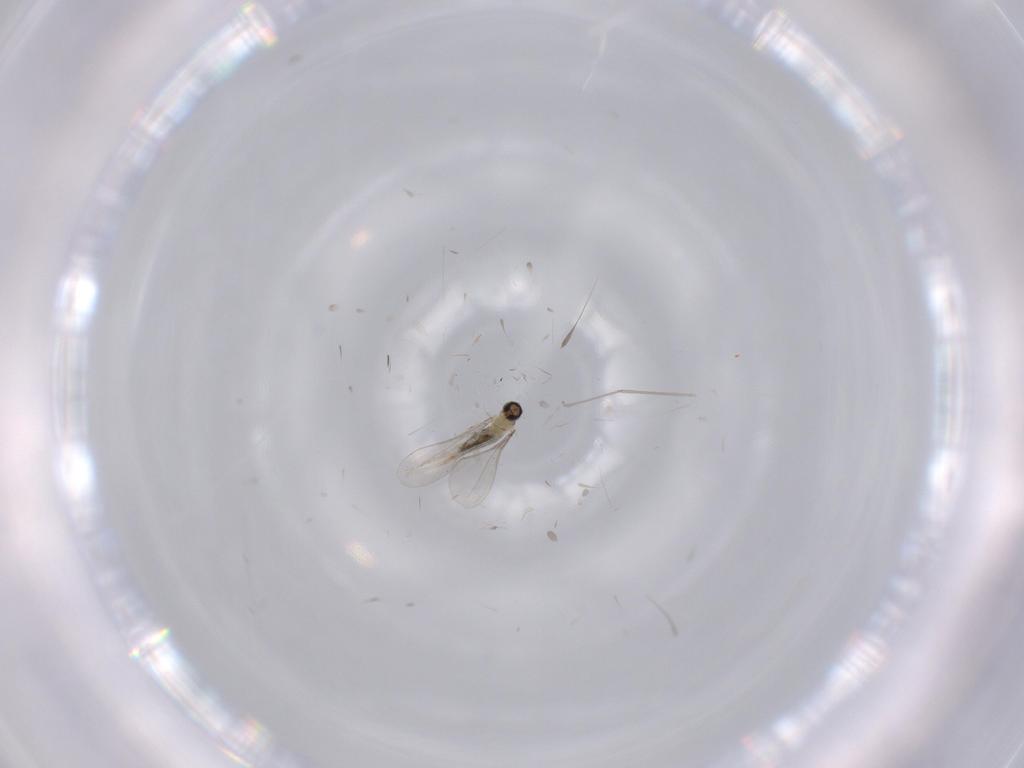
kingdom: Animalia
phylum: Arthropoda
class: Insecta
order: Diptera
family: Tabanidae
